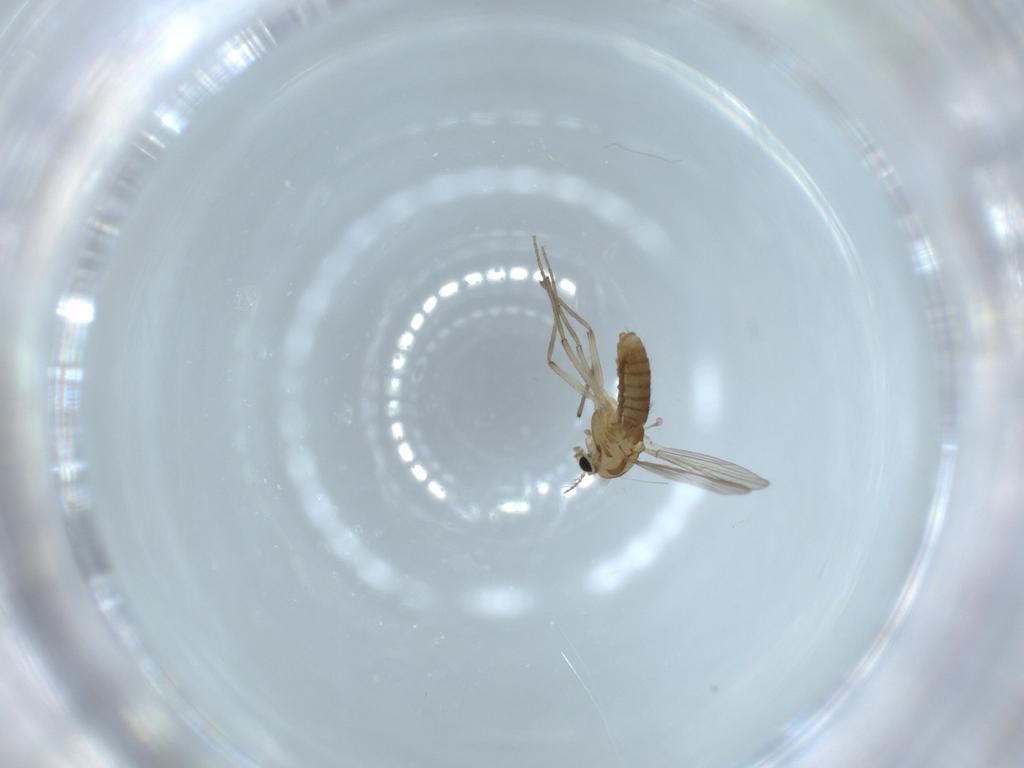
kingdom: Animalia
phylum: Arthropoda
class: Insecta
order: Diptera
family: Chironomidae
